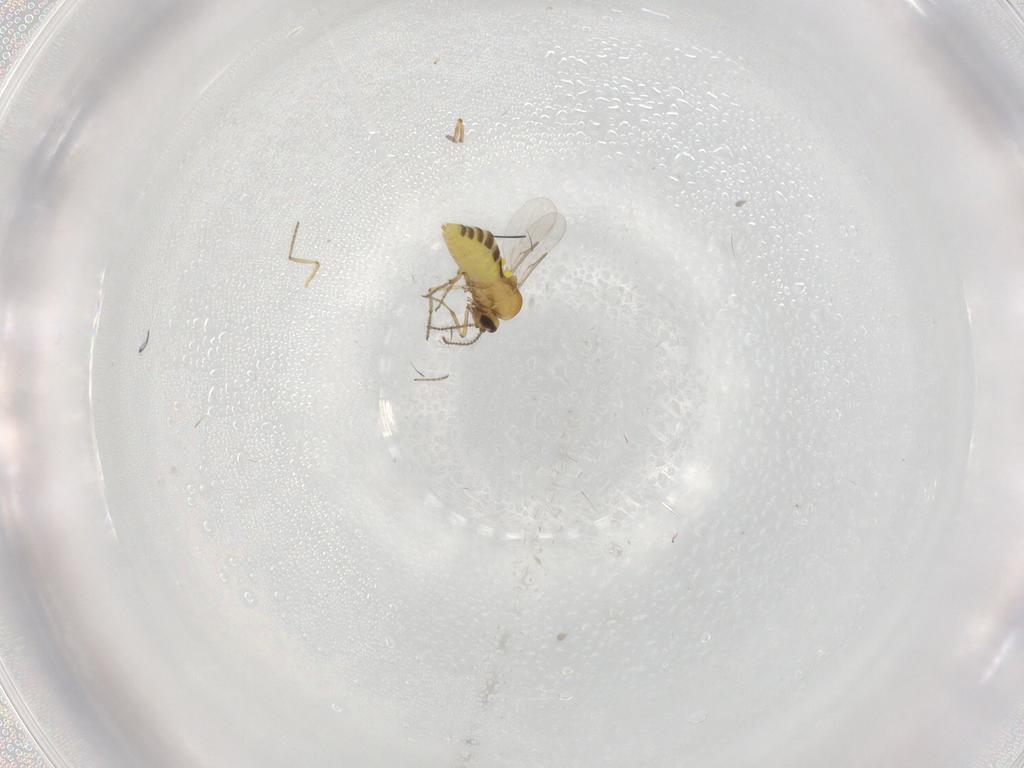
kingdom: Animalia
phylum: Arthropoda
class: Insecta
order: Diptera
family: Ceratopogonidae
